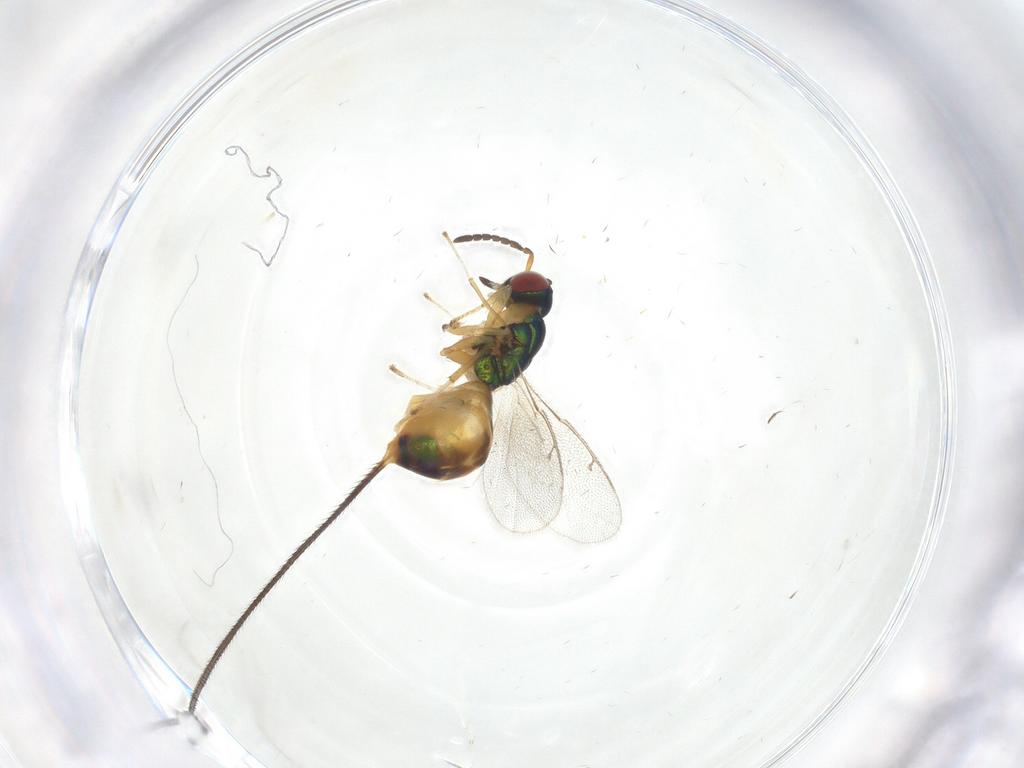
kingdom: Animalia
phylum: Arthropoda
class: Insecta
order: Hymenoptera
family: Pteromalidae
